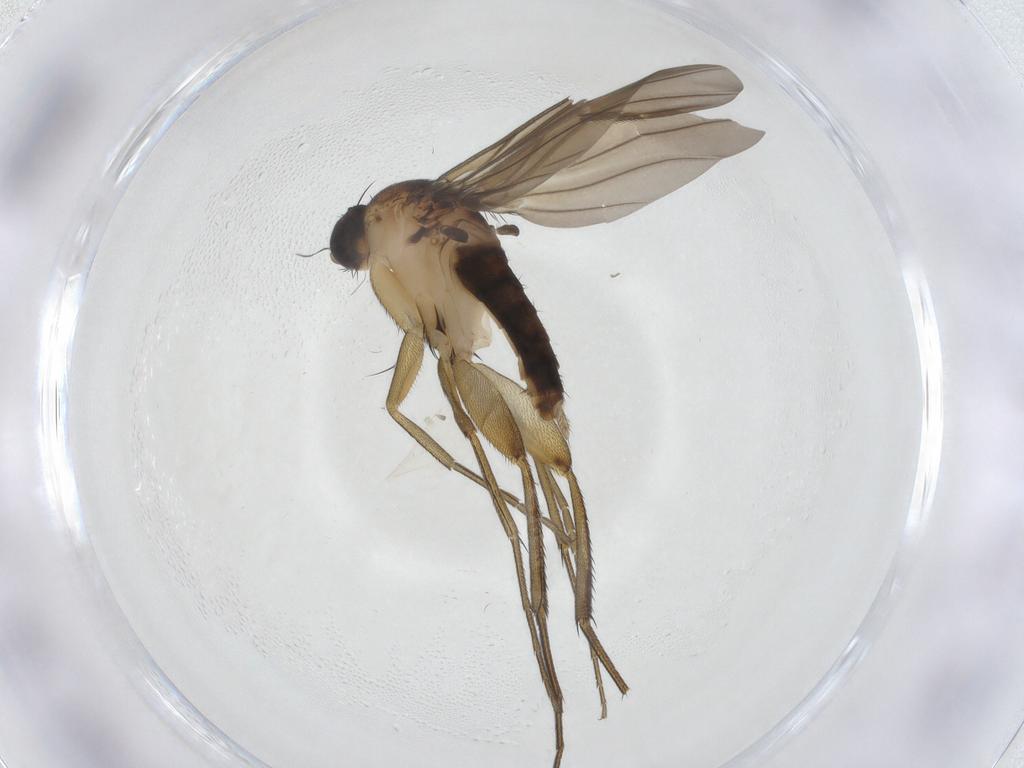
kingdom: Animalia
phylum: Arthropoda
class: Insecta
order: Diptera
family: Phoridae
